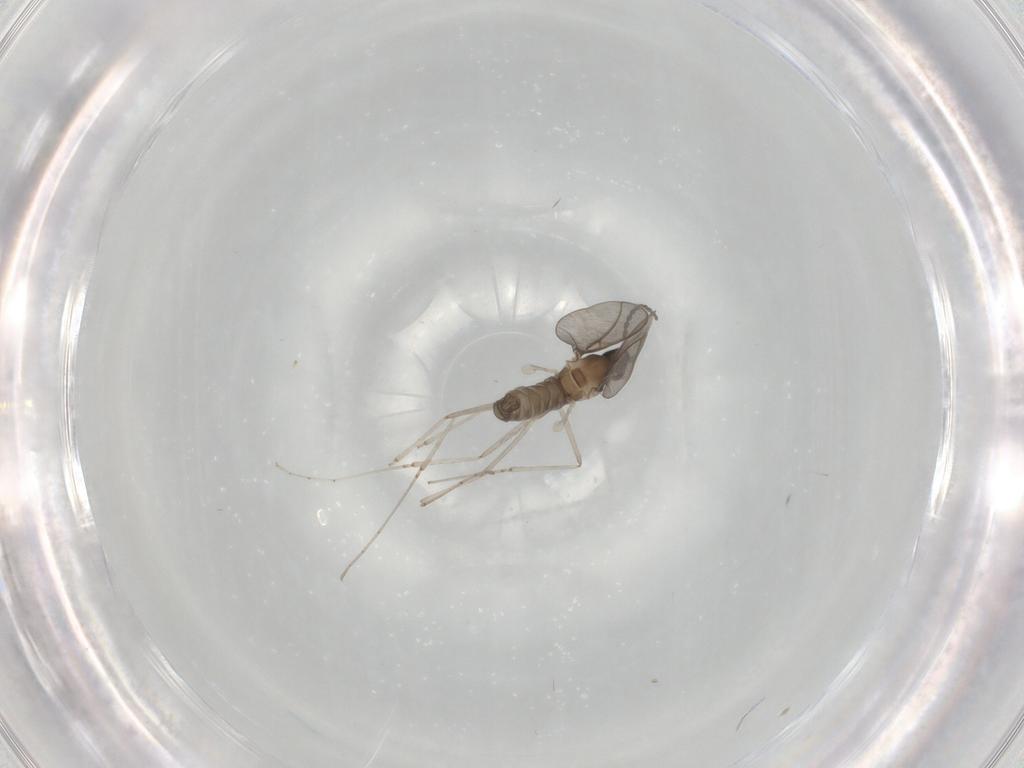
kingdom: Animalia
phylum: Arthropoda
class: Insecta
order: Diptera
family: Cecidomyiidae
